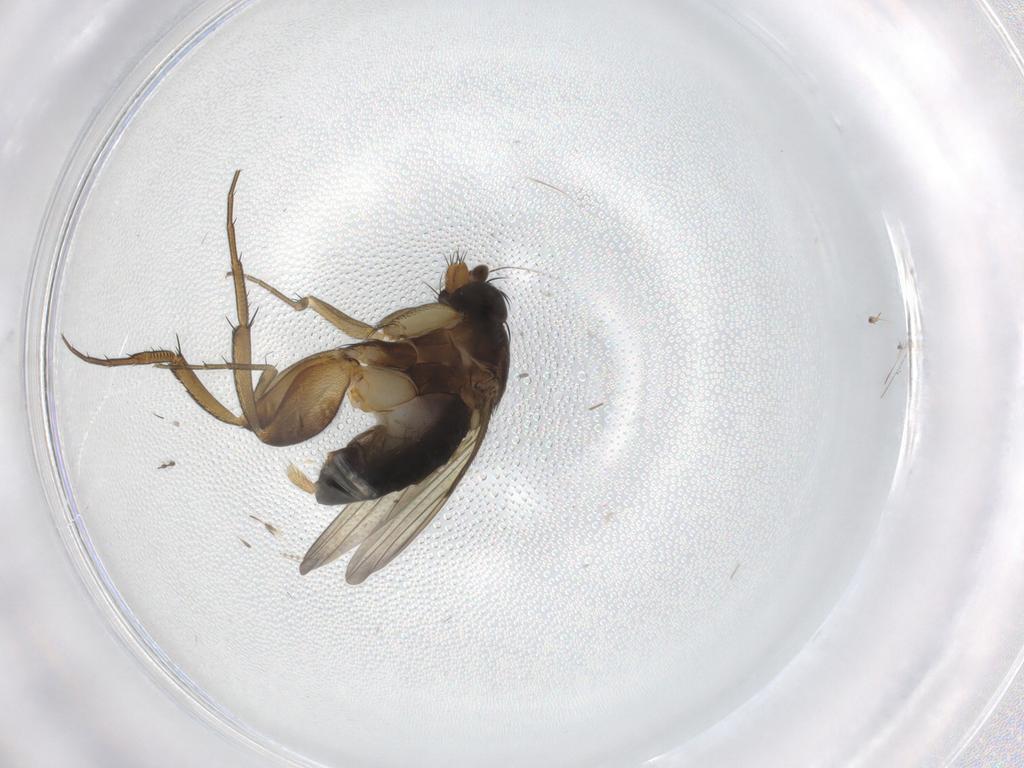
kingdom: Animalia
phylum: Arthropoda
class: Insecta
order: Diptera
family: Phoridae
